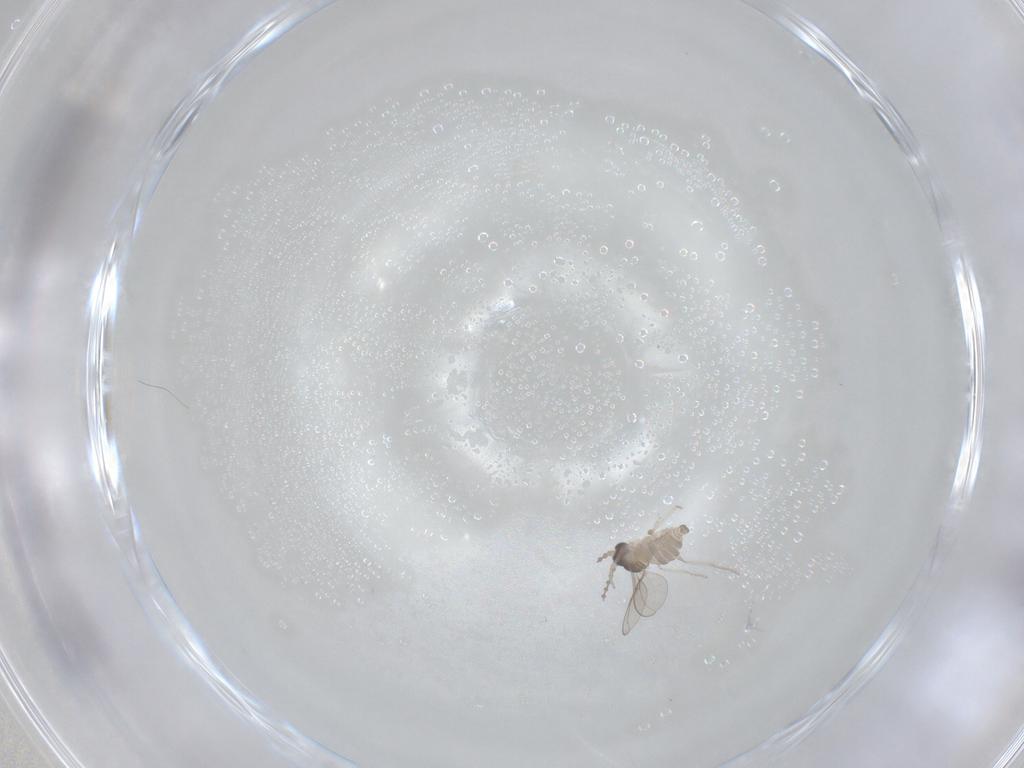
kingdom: Animalia
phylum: Arthropoda
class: Insecta
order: Diptera
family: Cecidomyiidae
